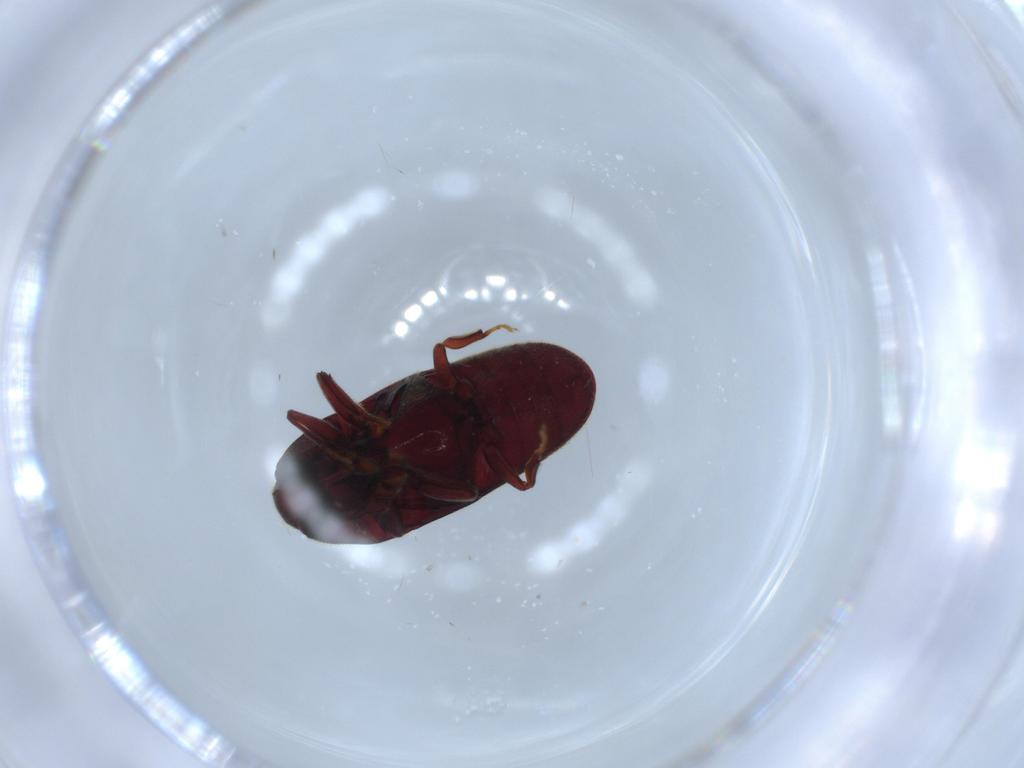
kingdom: Animalia
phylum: Arthropoda
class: Insecta
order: Coleoptera
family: Throscidae
